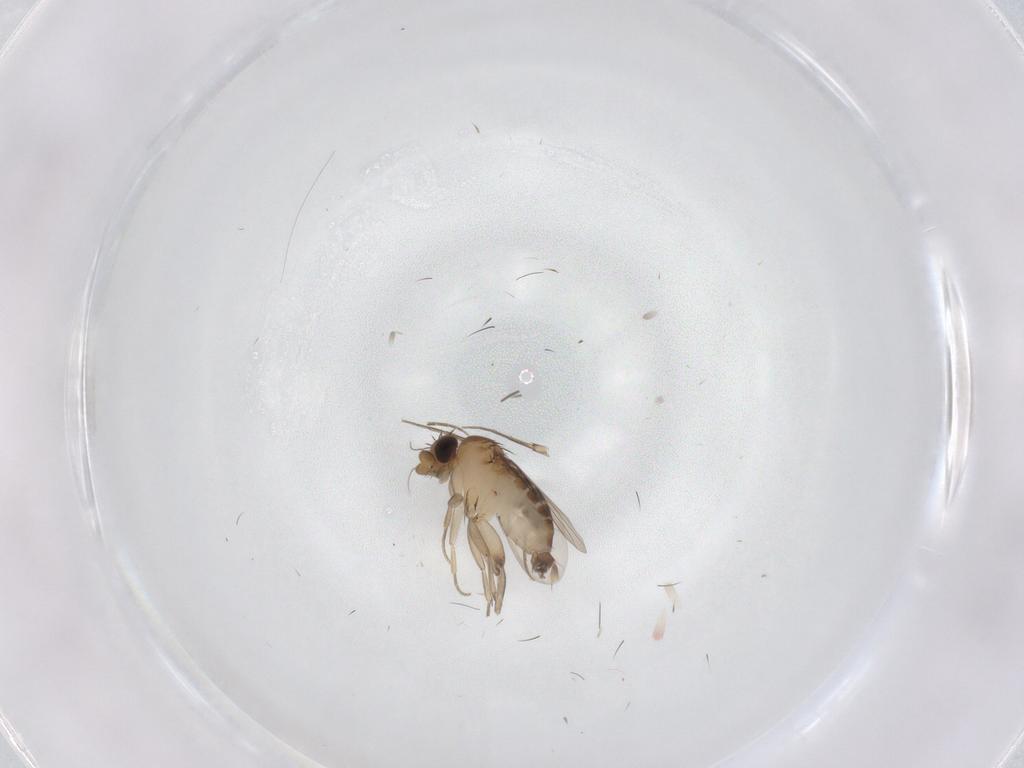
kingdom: Animalia
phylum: Arthropoda
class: Insecta
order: Diptera
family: Phoridae
